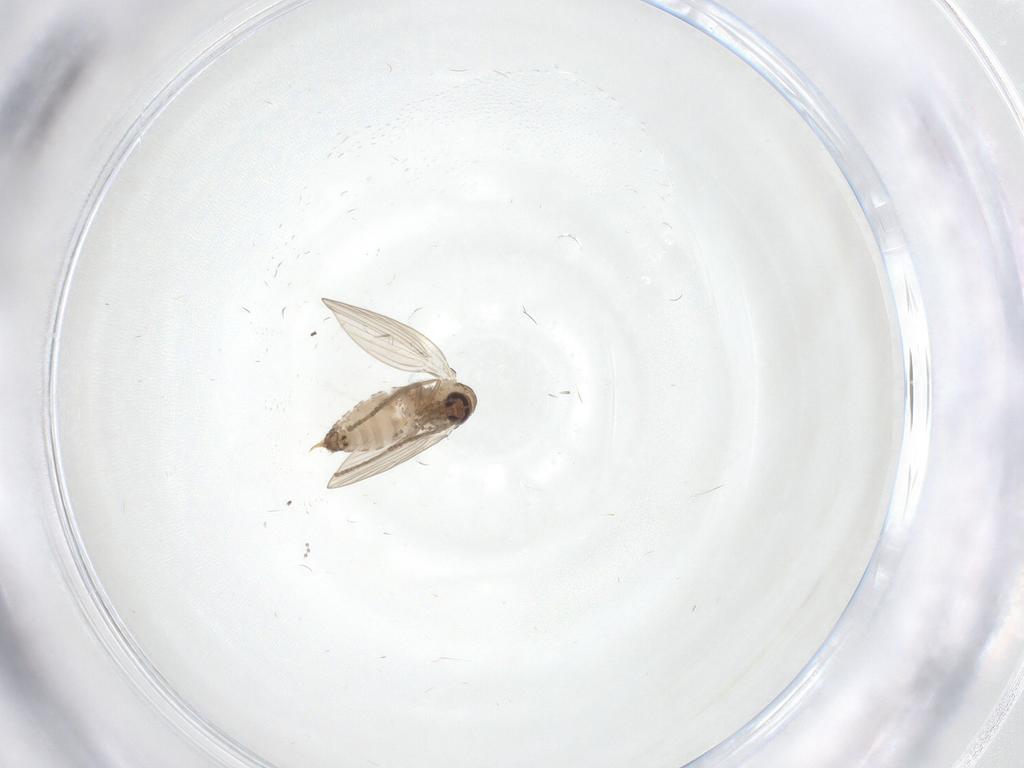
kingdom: Animalia
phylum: Arthropoda
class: Insecta
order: Diptera
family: Psychodidae
